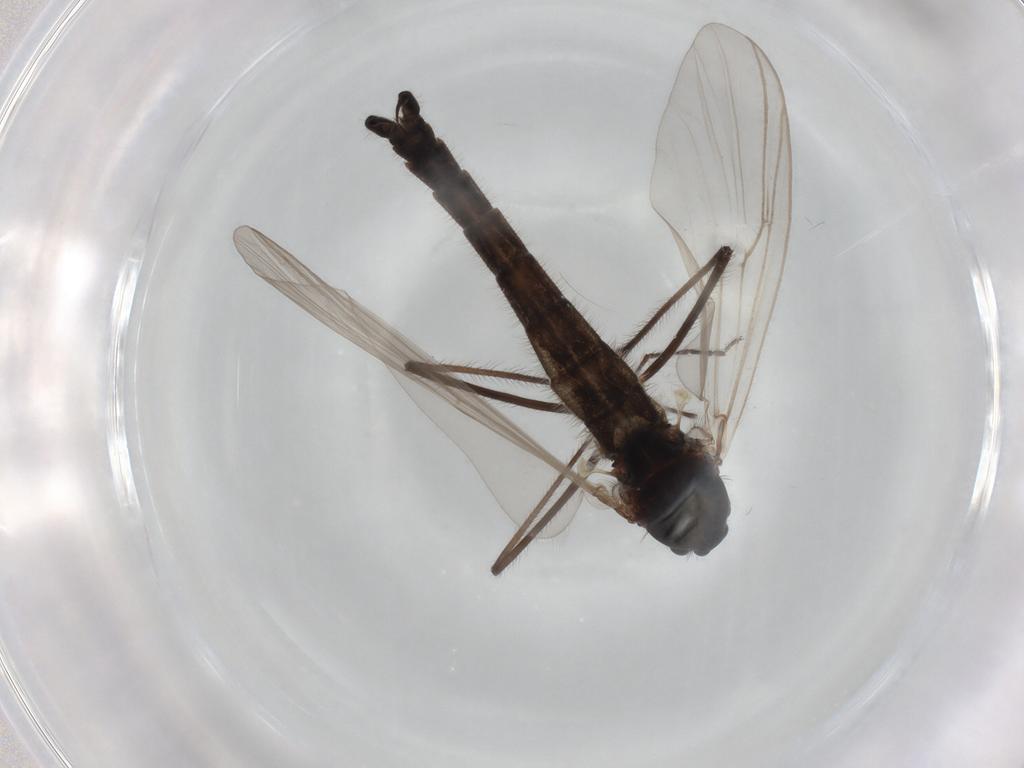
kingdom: Animalia
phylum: Arthropoda
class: Insecta
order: Diptera
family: Chironomidae
